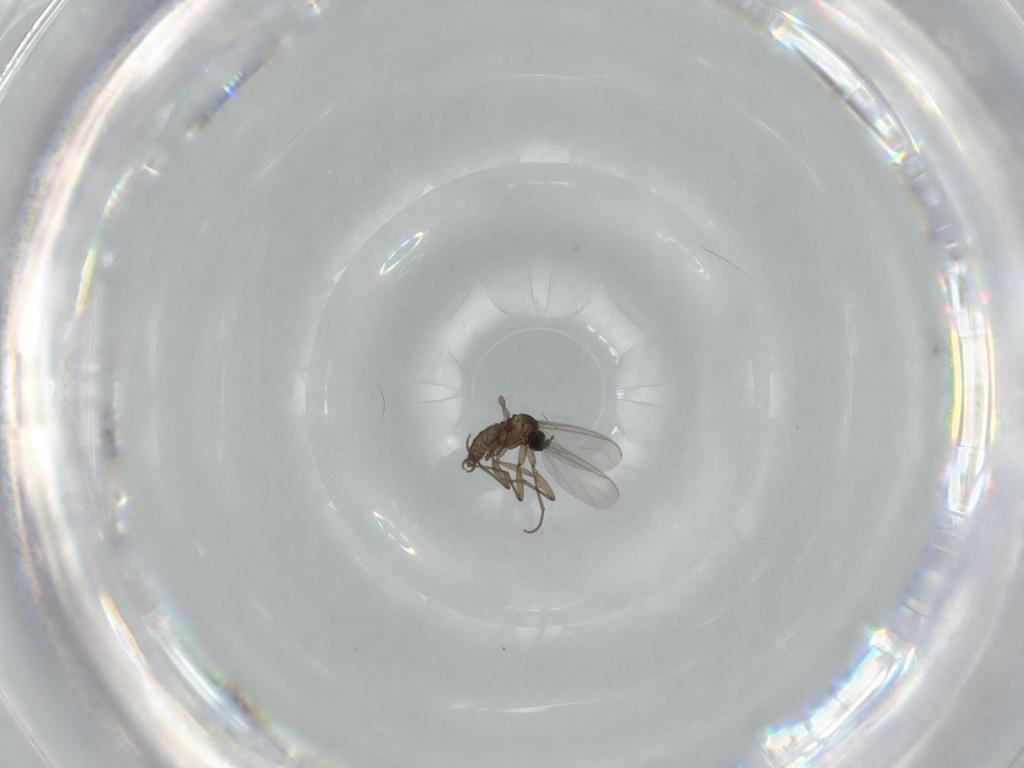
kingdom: Animalia
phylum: Arthropoda
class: Insecta
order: Diptera
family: Sciaridae
